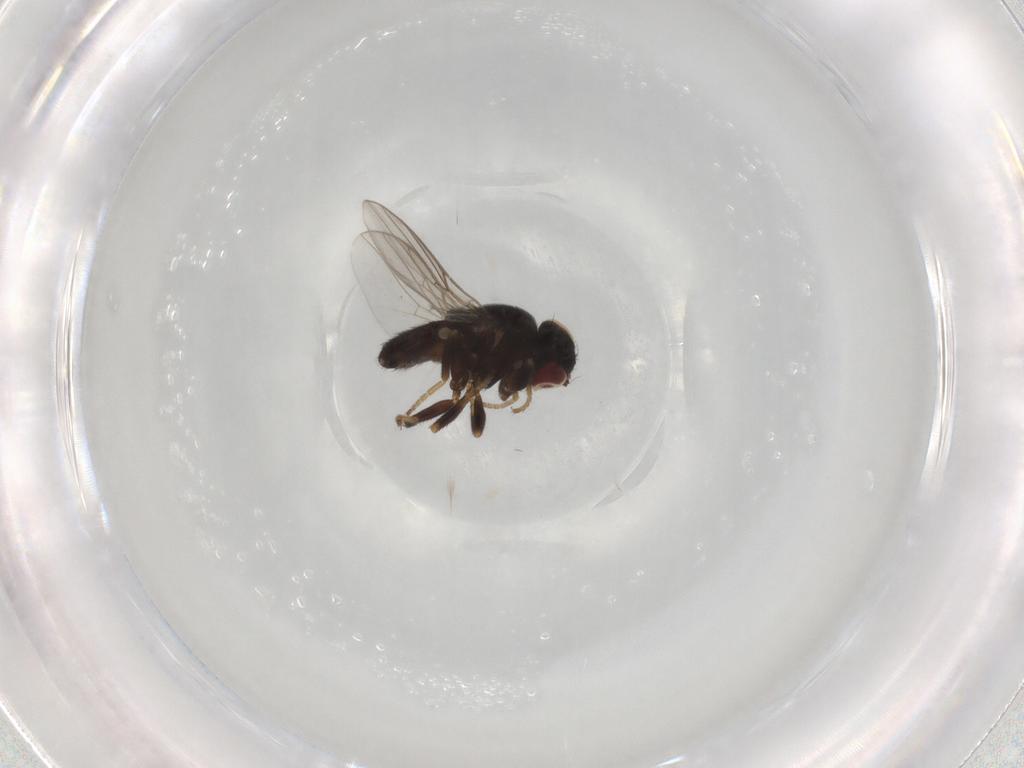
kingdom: Animalia
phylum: Arthropoda
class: Insecta
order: Diptera
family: Chloropidae
